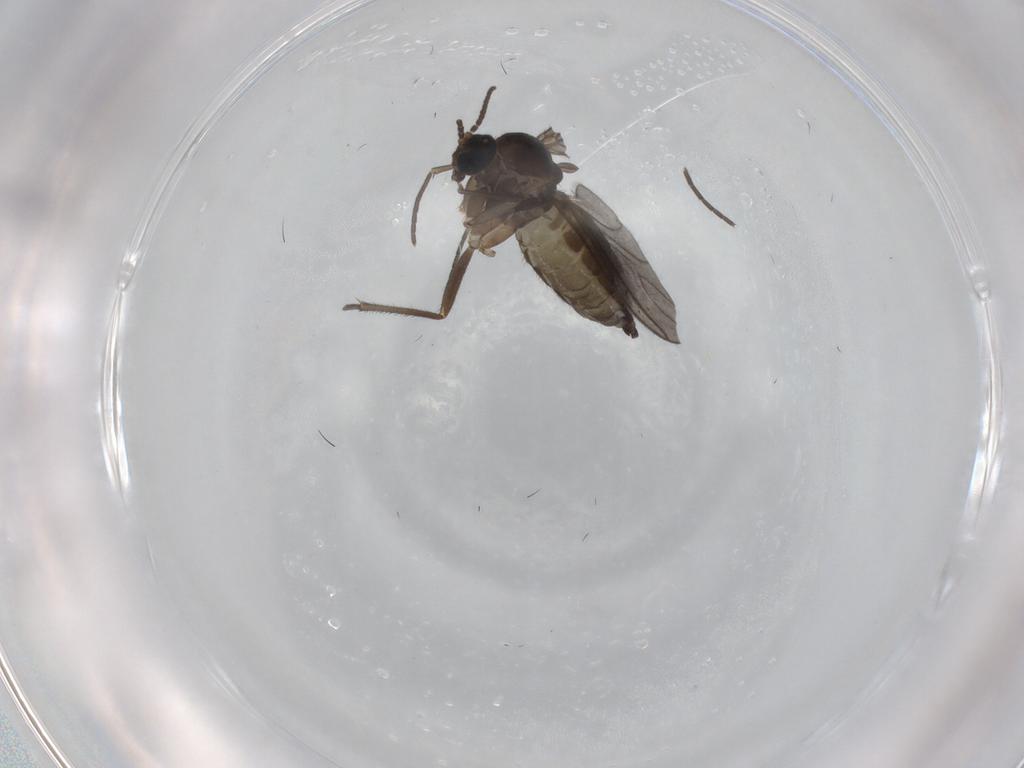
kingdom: Animalia
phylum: Arthropoda
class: Insecta
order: Diptera
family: Sciaridae
